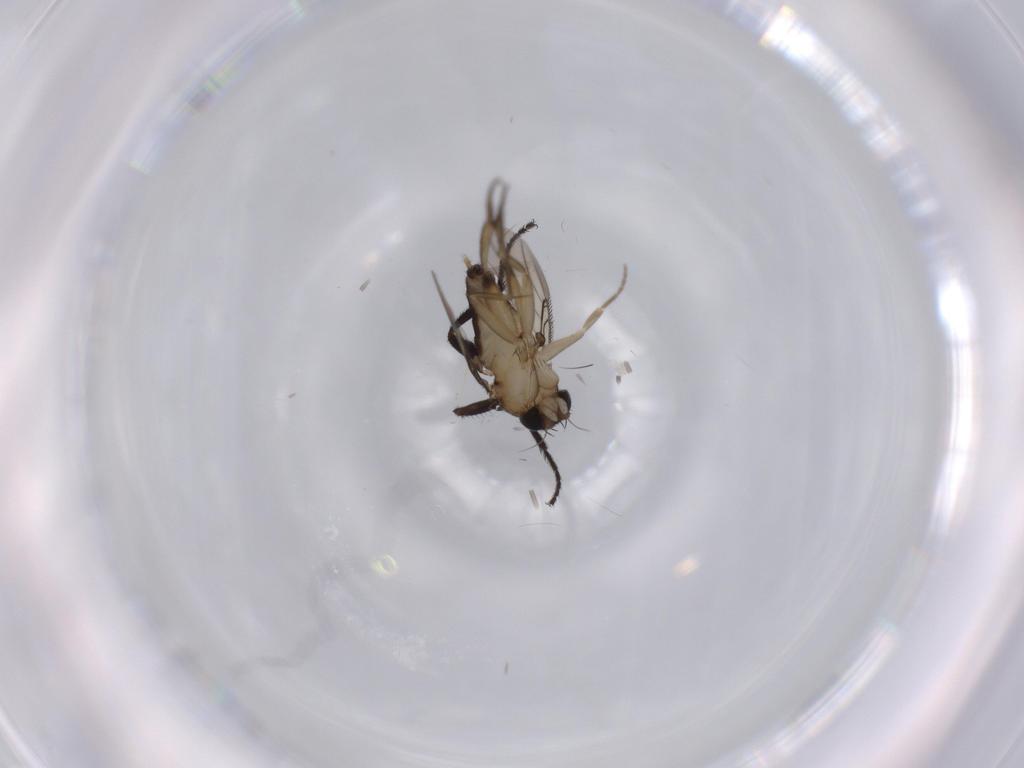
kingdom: Animalia
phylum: Arthropoda
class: Insecta
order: Diptera
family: Phoridae
